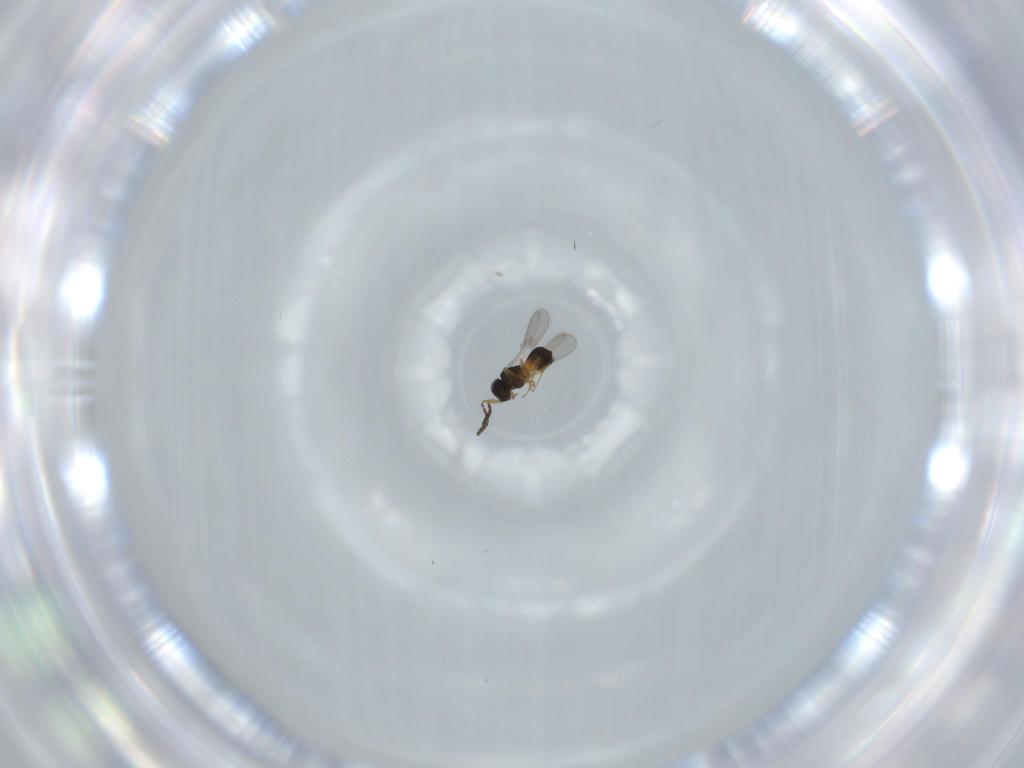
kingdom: Animalia
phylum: Arthropoda
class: Insecta
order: Hymenoptera
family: Scelionidae
